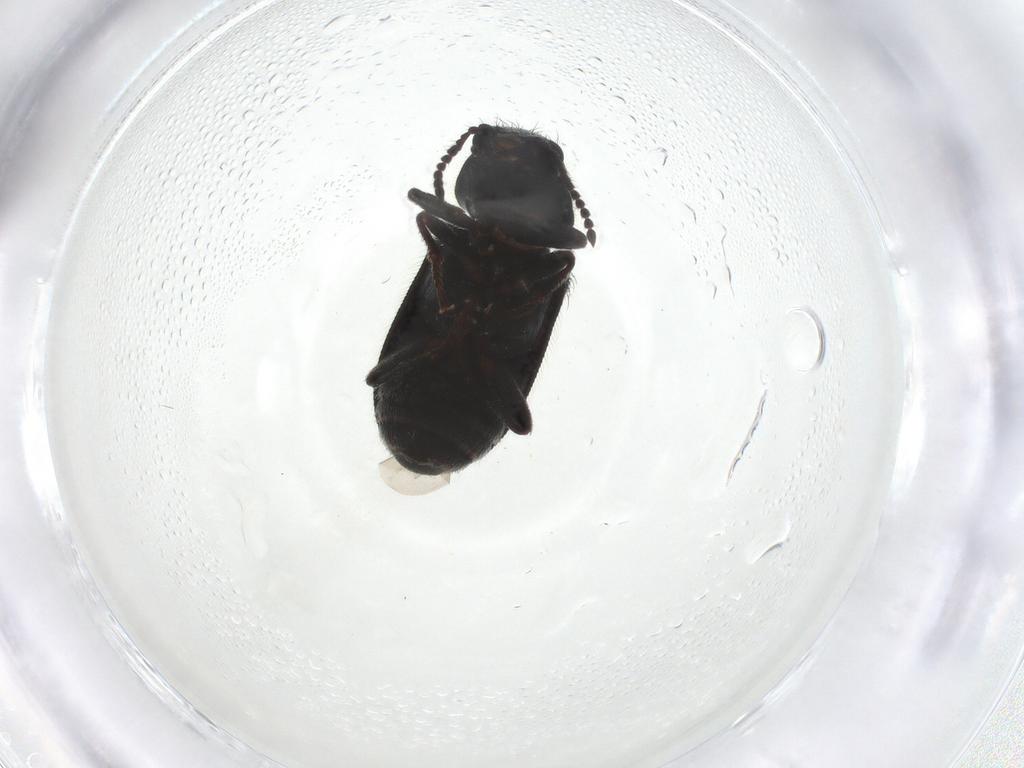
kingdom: Animalia
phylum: Arthropoda
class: Insecta
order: Coleoptera
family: Melyridae
